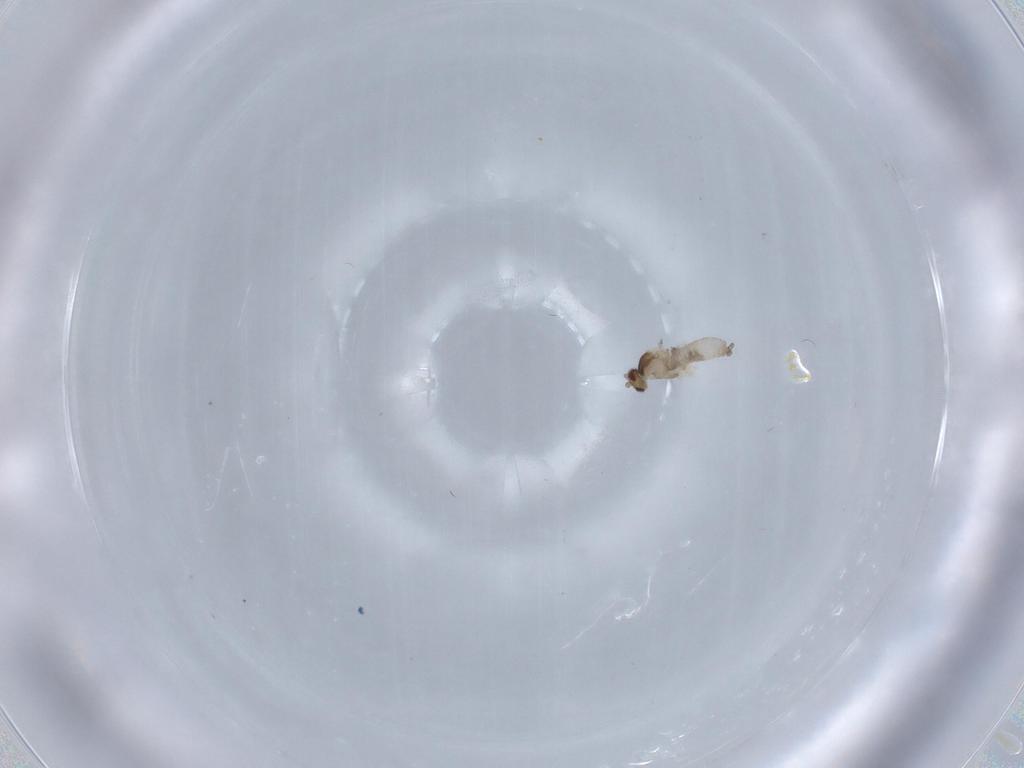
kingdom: Animalia
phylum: Arthropoda
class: Insecta
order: Diptera
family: Cecidomyiidae
